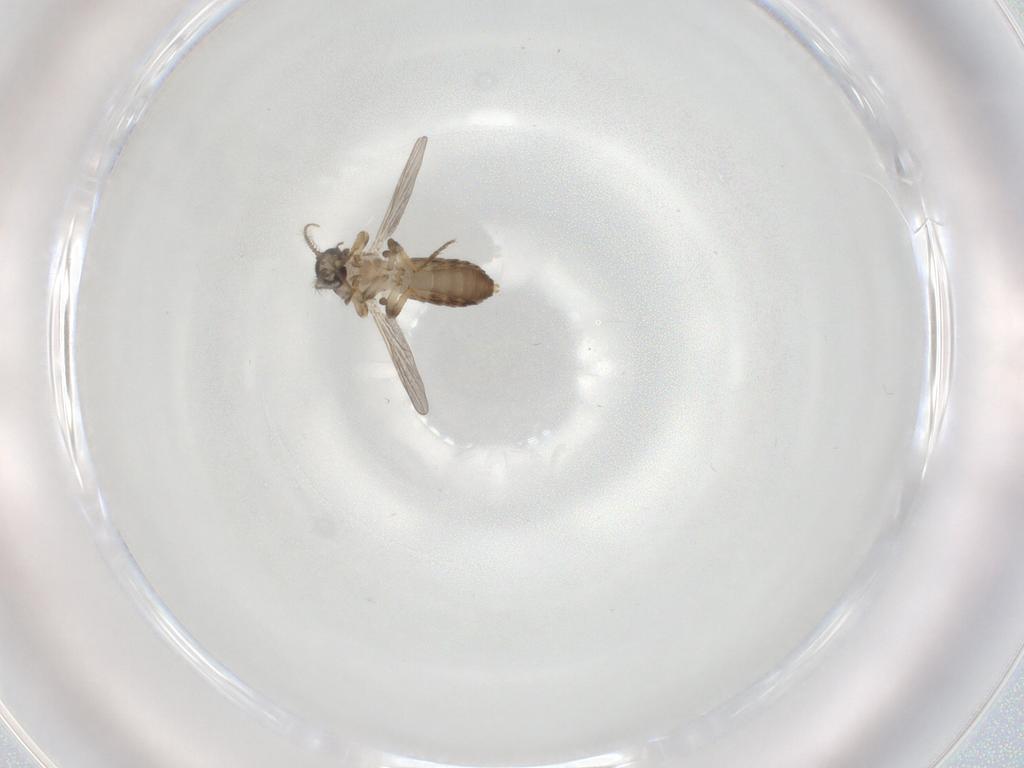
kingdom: Animalia
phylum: Arthropoda
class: Insecta
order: Diptera
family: Ceratopogonidae
